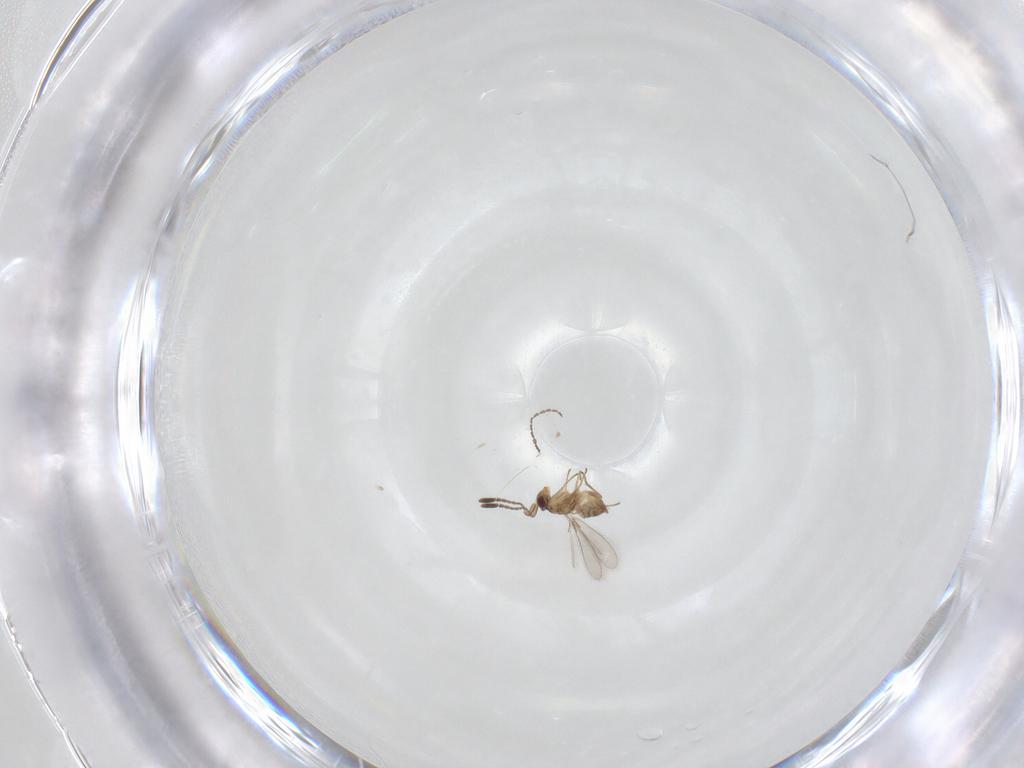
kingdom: Animalia
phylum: Arthropoda
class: Insecta
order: Hymenoptera
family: Mymaridae
